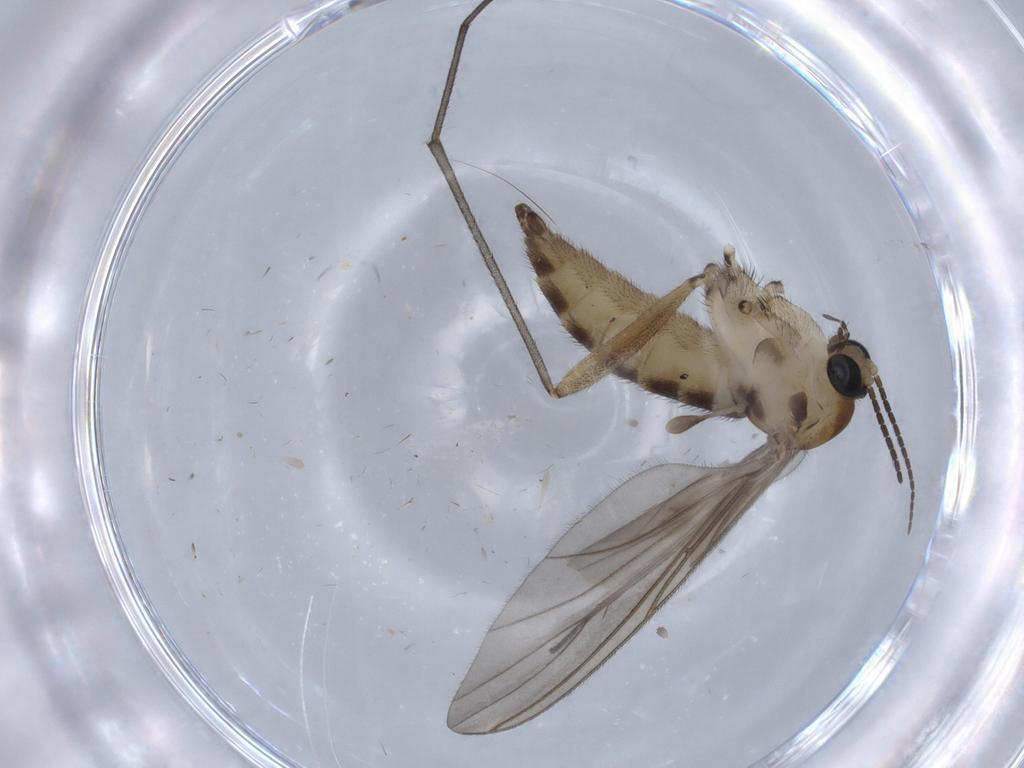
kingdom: Animalia
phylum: Arthropoda
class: Insecta
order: Diptera
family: Sciaridae
